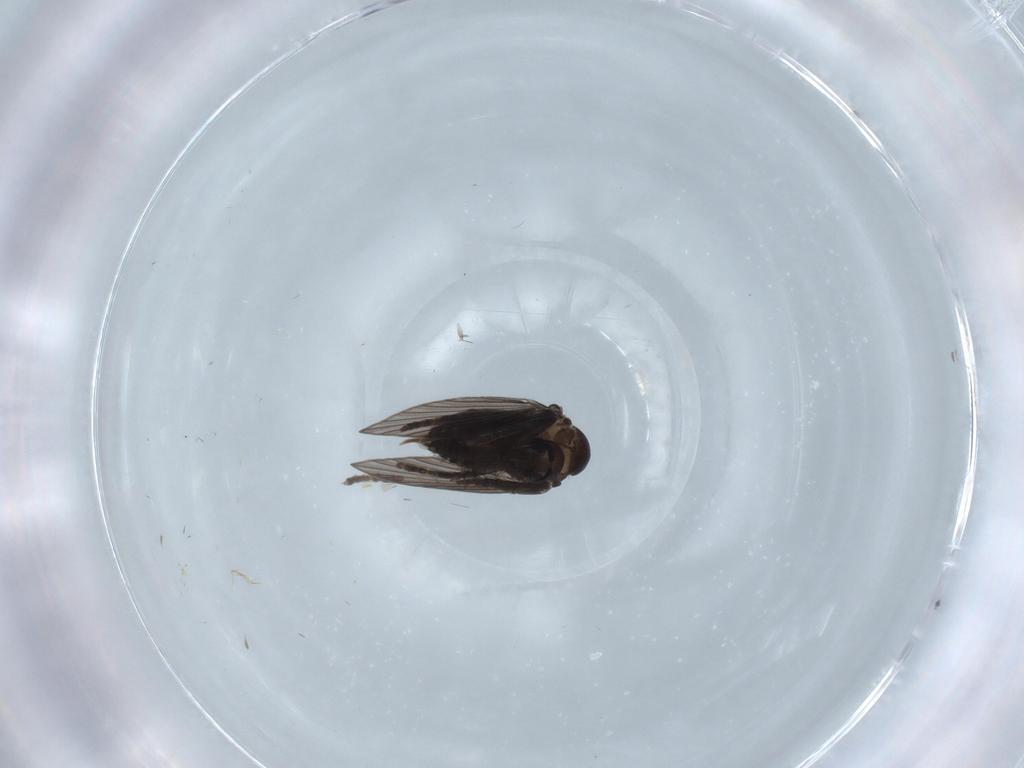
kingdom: Animalia
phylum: Arthropoda
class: Insecta
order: Diptera
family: Psychodidae
